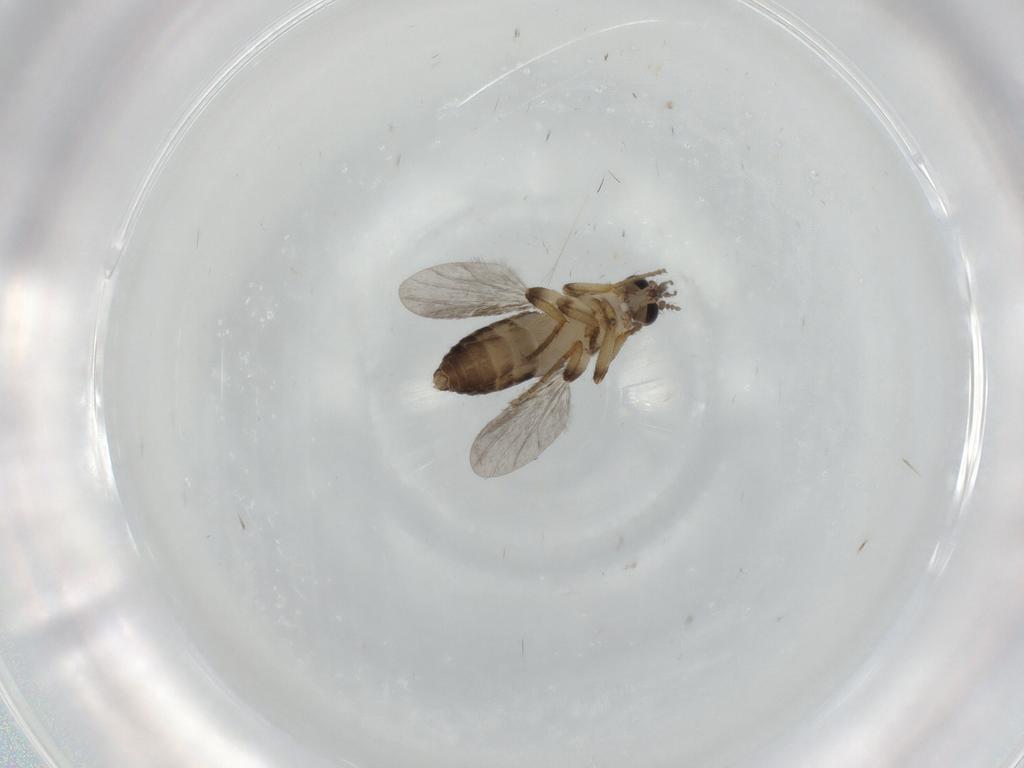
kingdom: Animalia
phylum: Arthropoda
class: Insecta
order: Diptera
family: Ceratopogonidae
